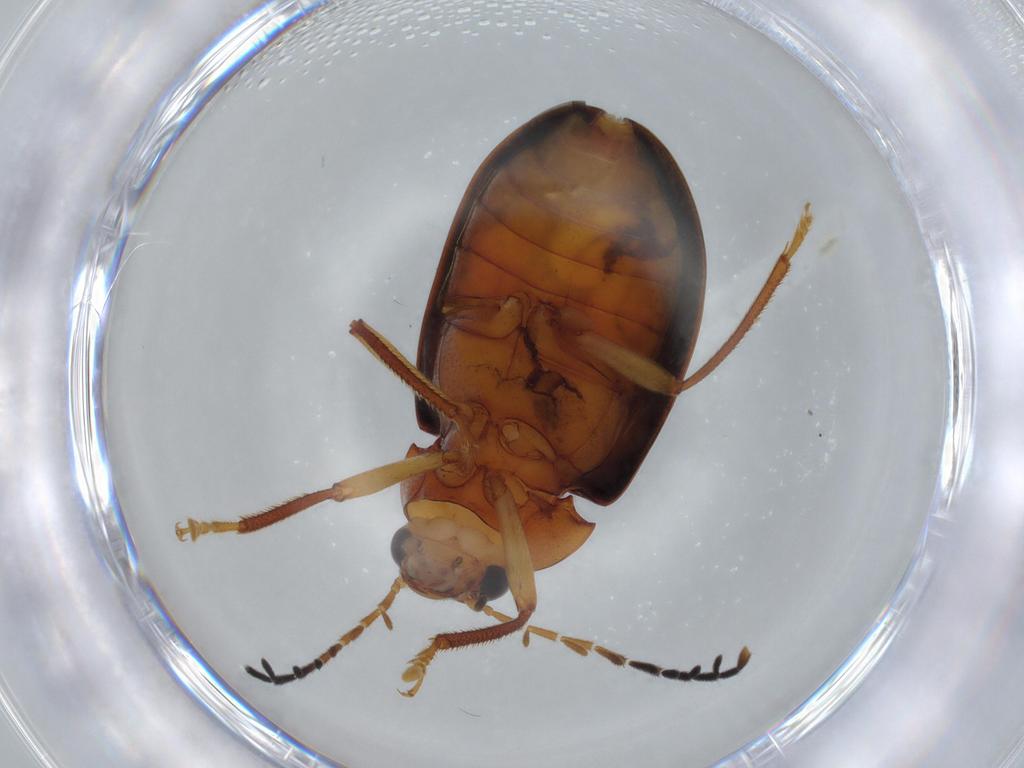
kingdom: Animalia
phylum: Arthropoda
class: Insecta
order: Coleoptera
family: Ptilodactylidae
